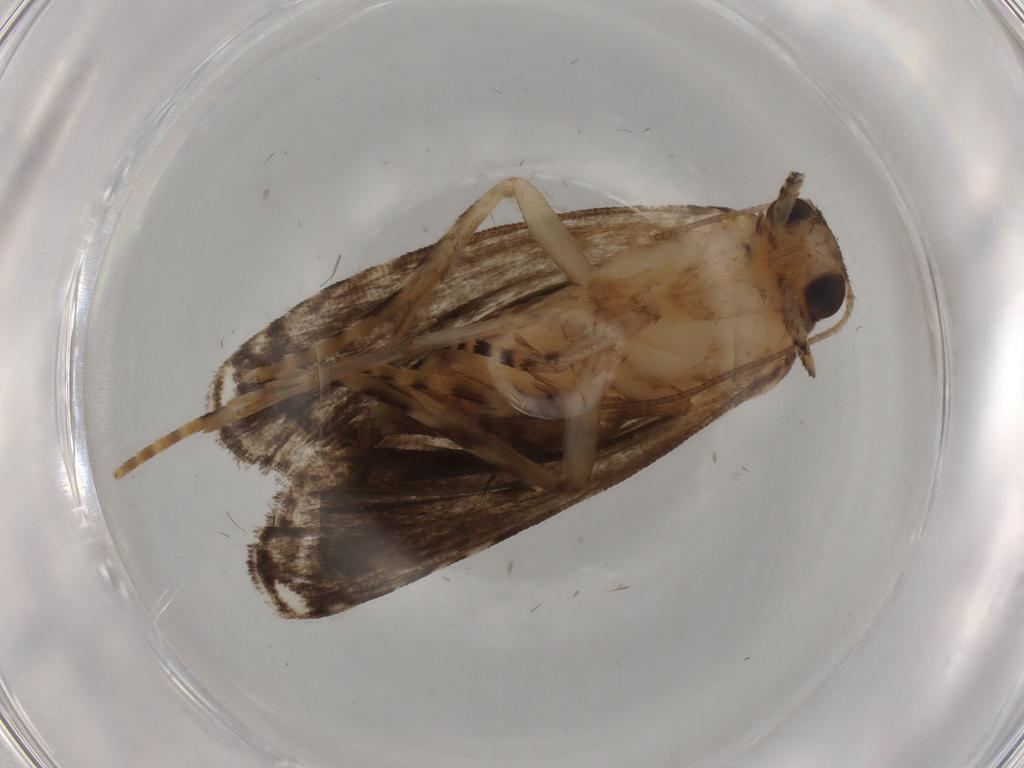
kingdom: Animalia
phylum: Arthropoda
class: Insecta
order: Lepidoptera
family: Immidae
